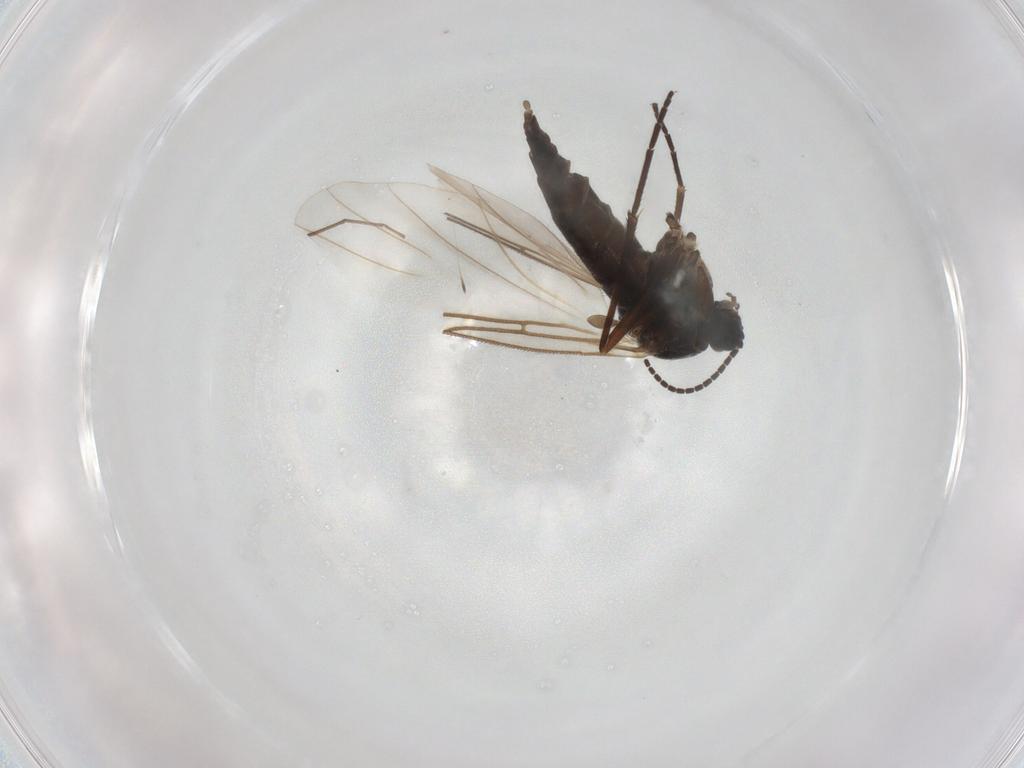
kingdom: Animalia
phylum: Arthropoda
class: Insecta
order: Diptera
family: Sciaridae
